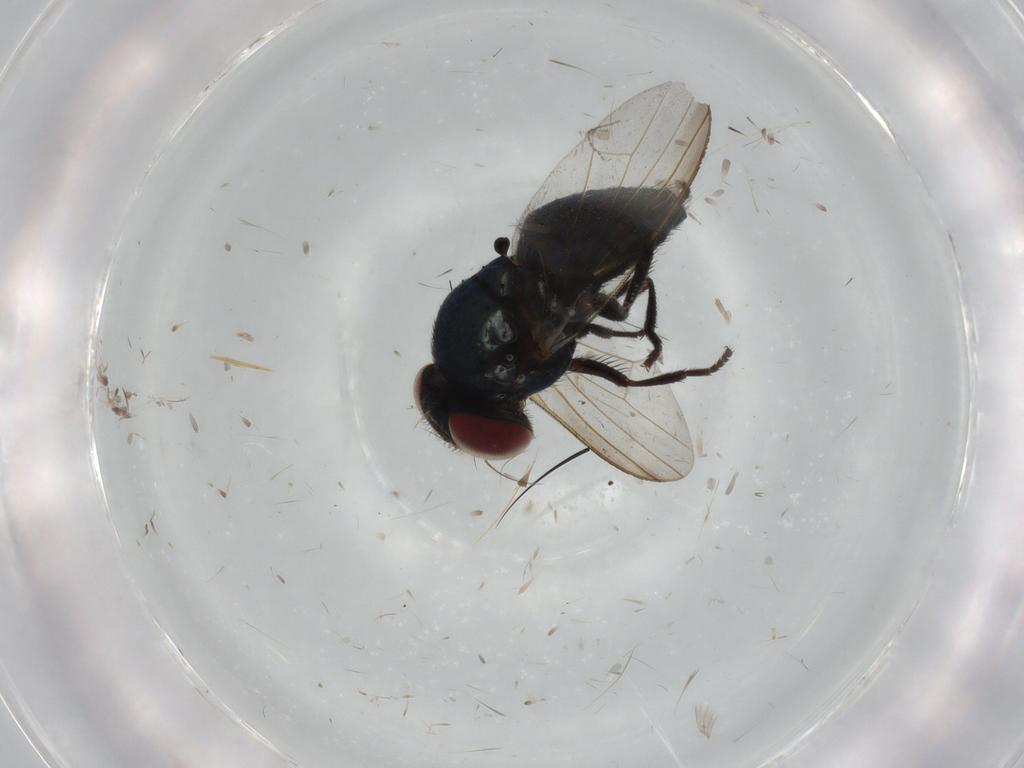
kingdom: Animalia
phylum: Arthropoda
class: Insecta
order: Diptera
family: Lonchaeidae
